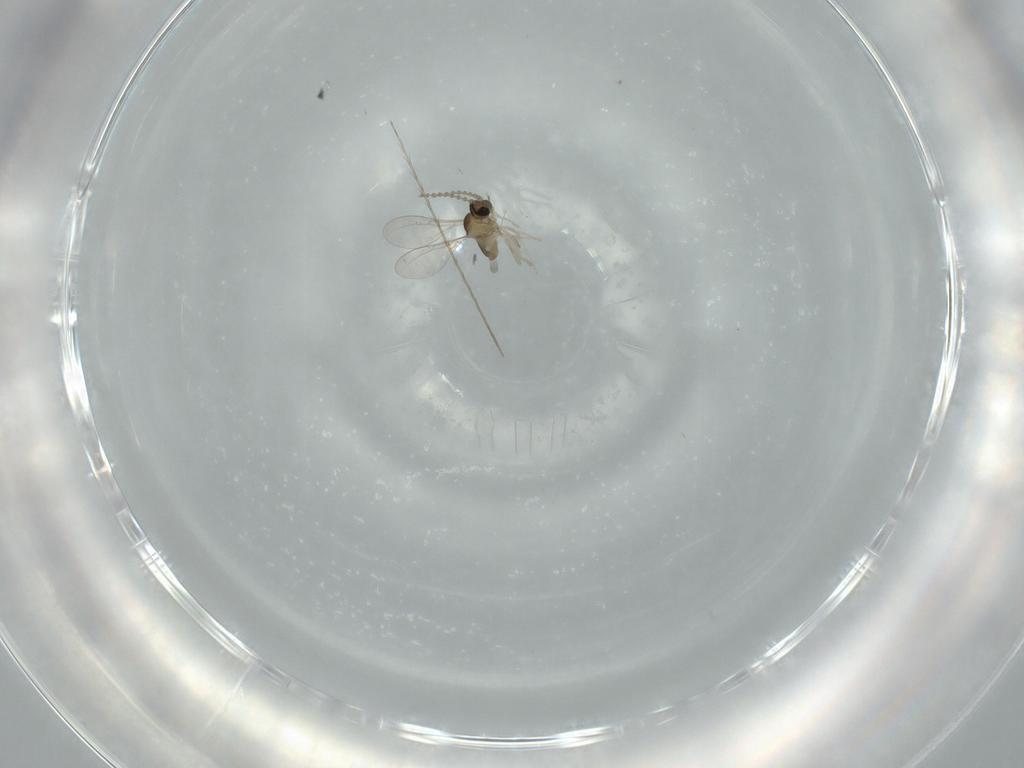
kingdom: Animalia
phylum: Arthropoda
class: Insecta
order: Diptera
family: Cecidomyiidae
